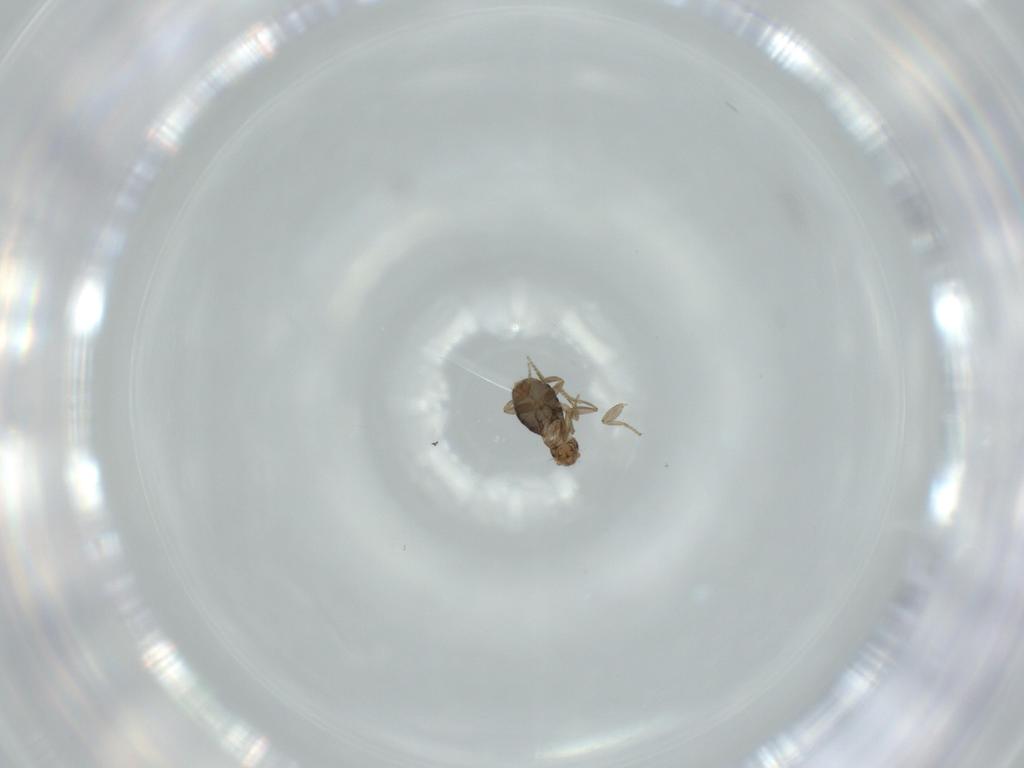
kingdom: Animalia
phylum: Arthropoda
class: Insecta
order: Diptera
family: Phoridae
